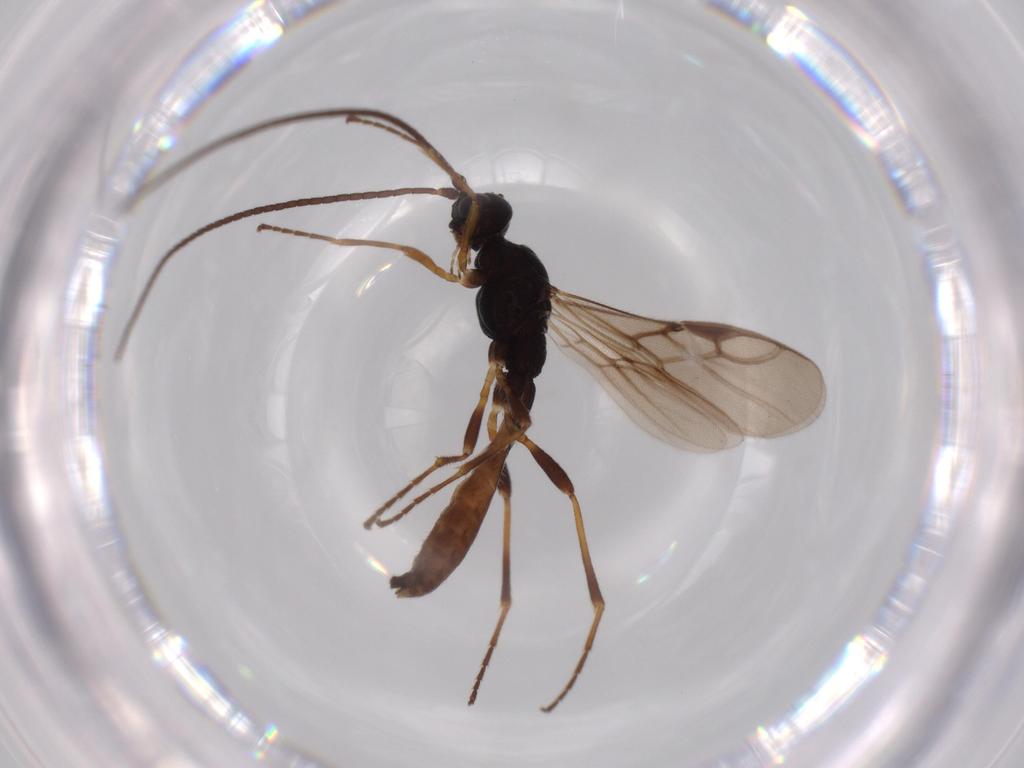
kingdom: Animalia
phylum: Arthropoda
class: Insecta
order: Hymenoptera
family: Braconidae
